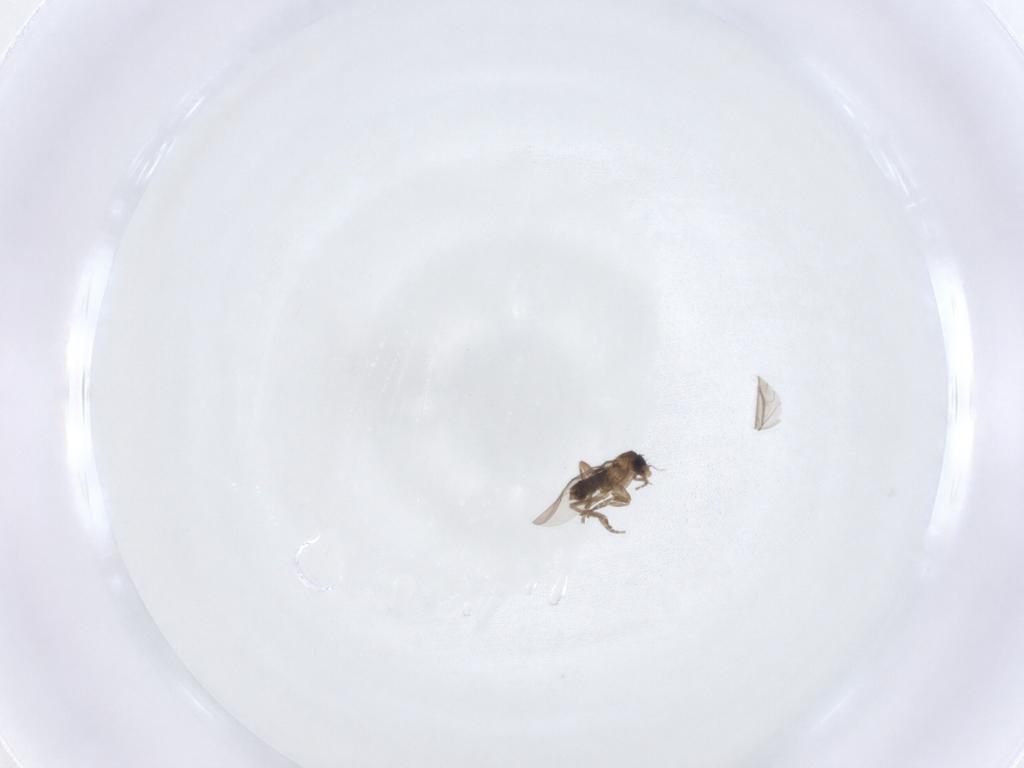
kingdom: Animalia
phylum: Arthropoda
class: Insecta
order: Diptera
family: Phoridae
